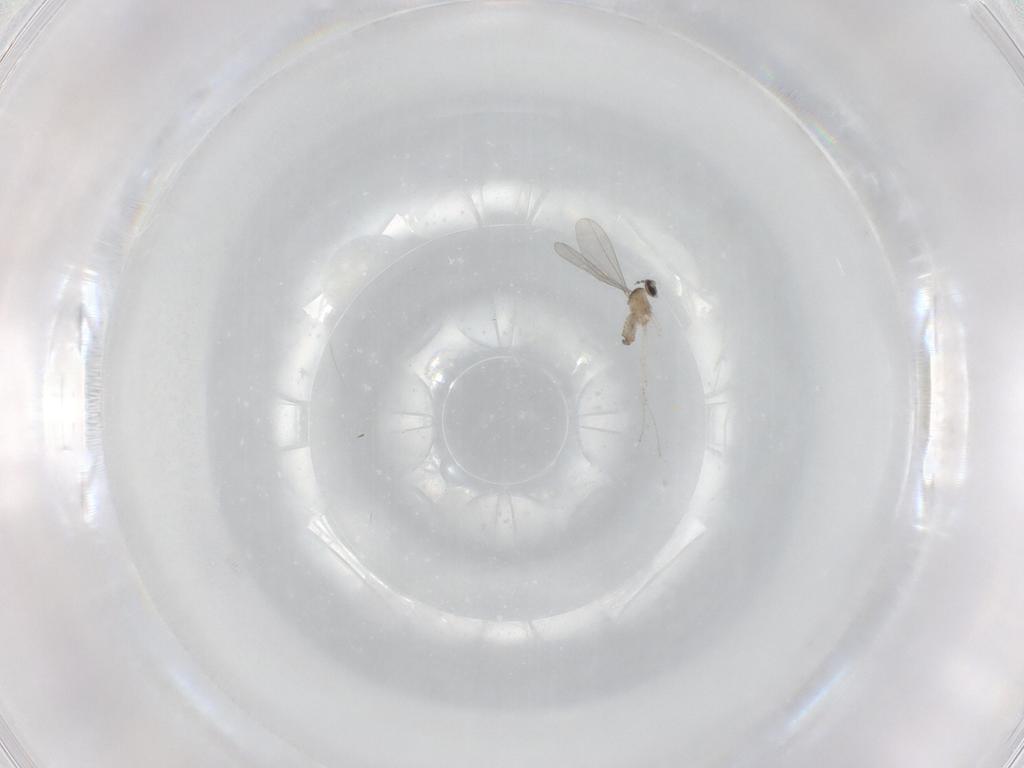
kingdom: Animalia
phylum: Arthropoda
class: Insecta
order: Diptera
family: Cecidomyiidae
